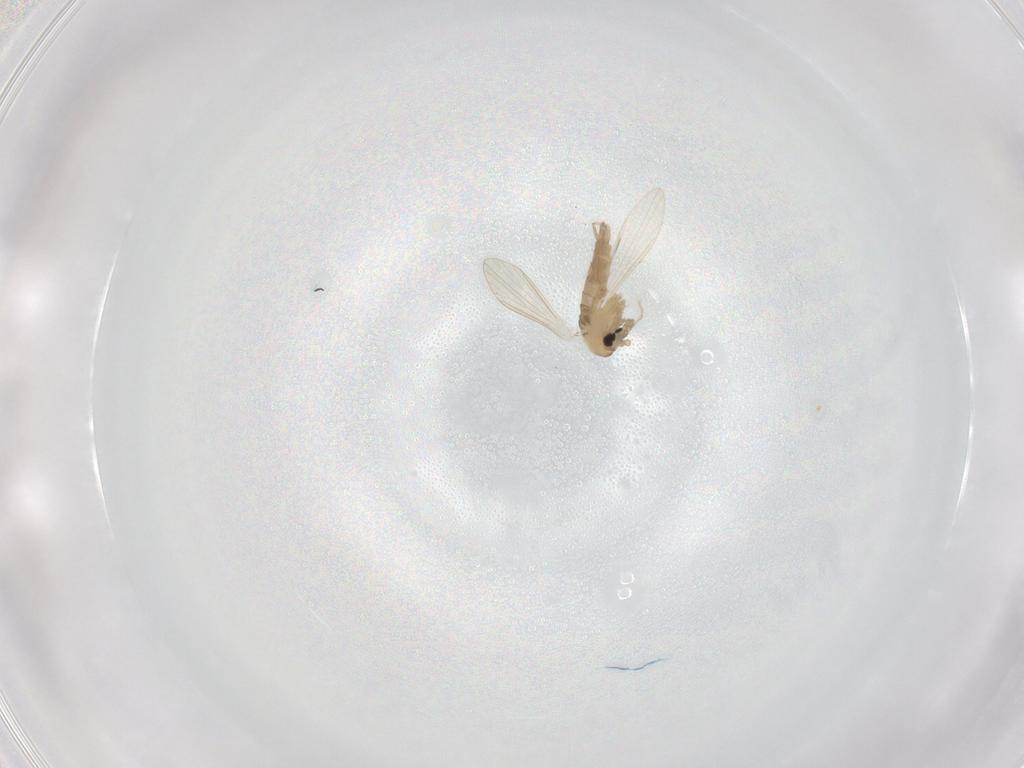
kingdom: Animalia
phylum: Arthropoda
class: Insecta
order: Diptera
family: Psychodidae
